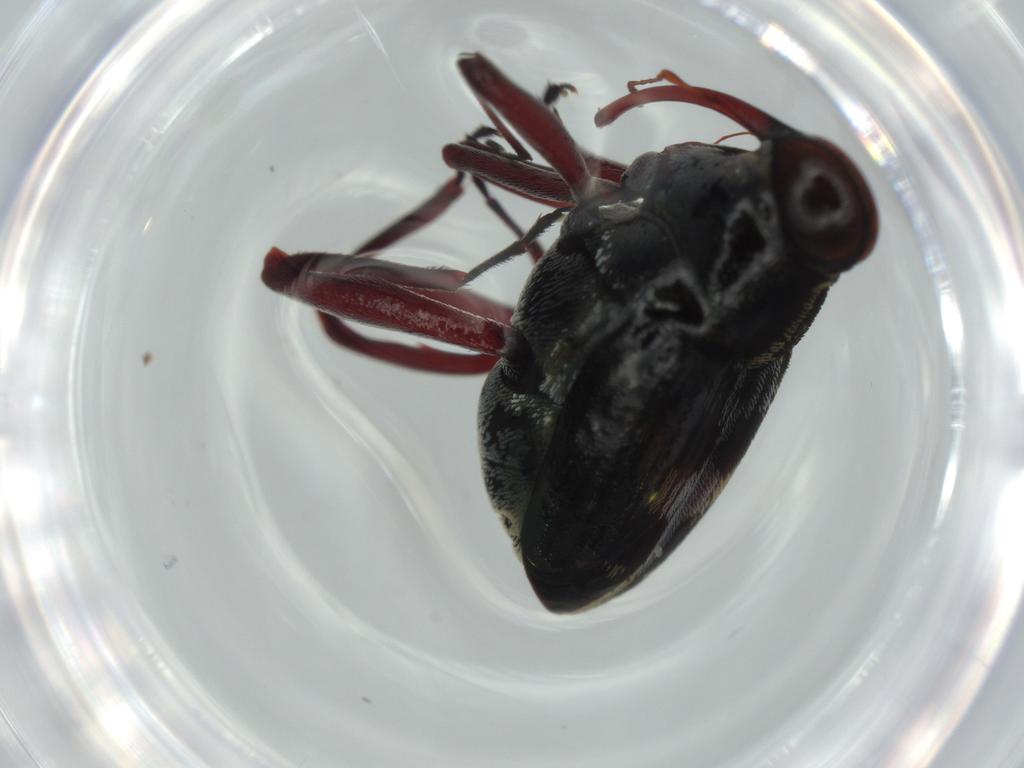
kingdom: Animalia
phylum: Arthropoda
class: Insecta
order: Coleoptera
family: Curculionidae
